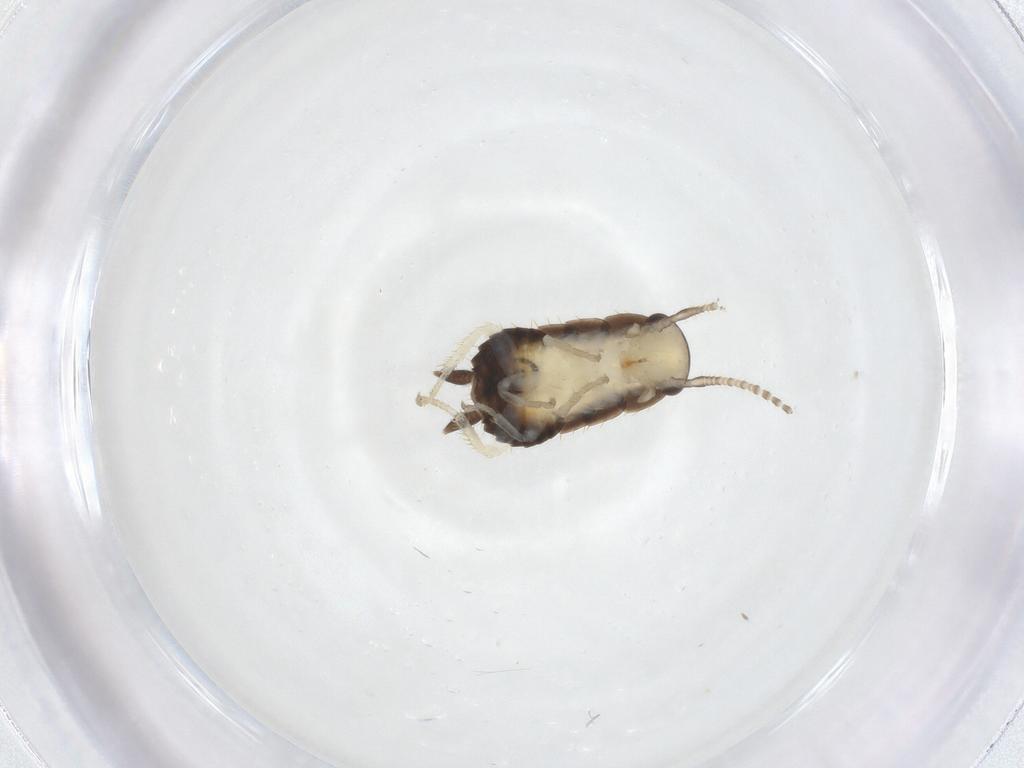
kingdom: Animalia
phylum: Arthropoda
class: Insecta
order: Blattodea
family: Ectobiidae
